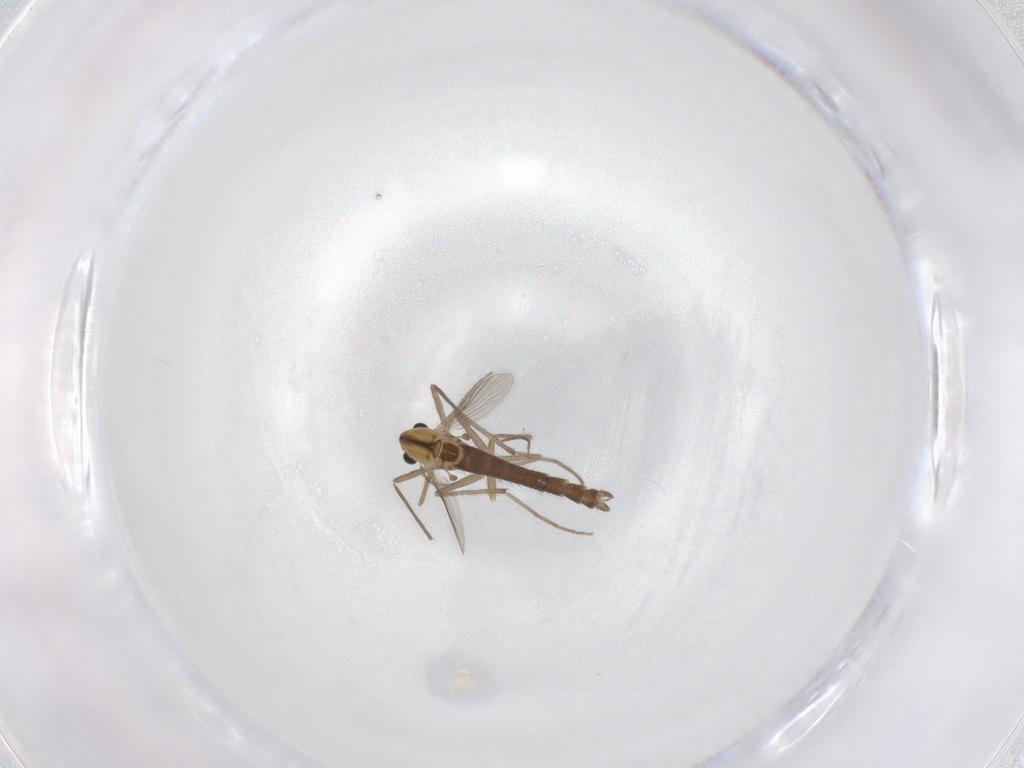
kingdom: Animalia
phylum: Arthropoda
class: Insecta
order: Diptera
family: Chironomidae
